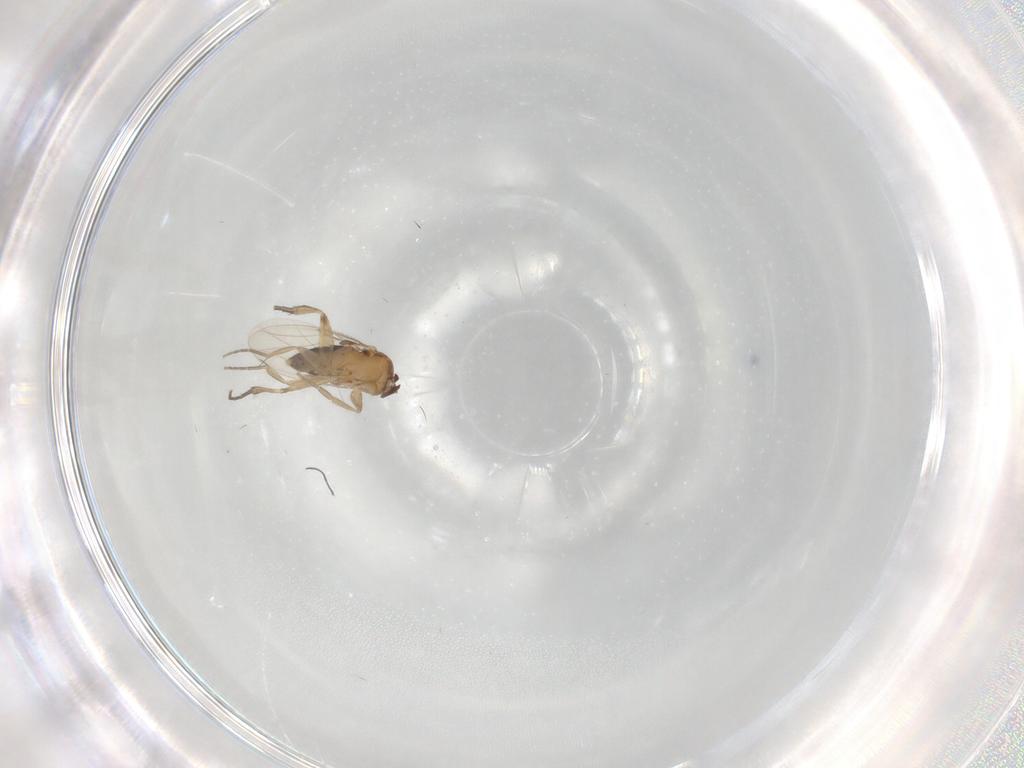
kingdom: Animalia
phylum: Arthropoda
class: Insecta
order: Diptera
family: Phoridae
